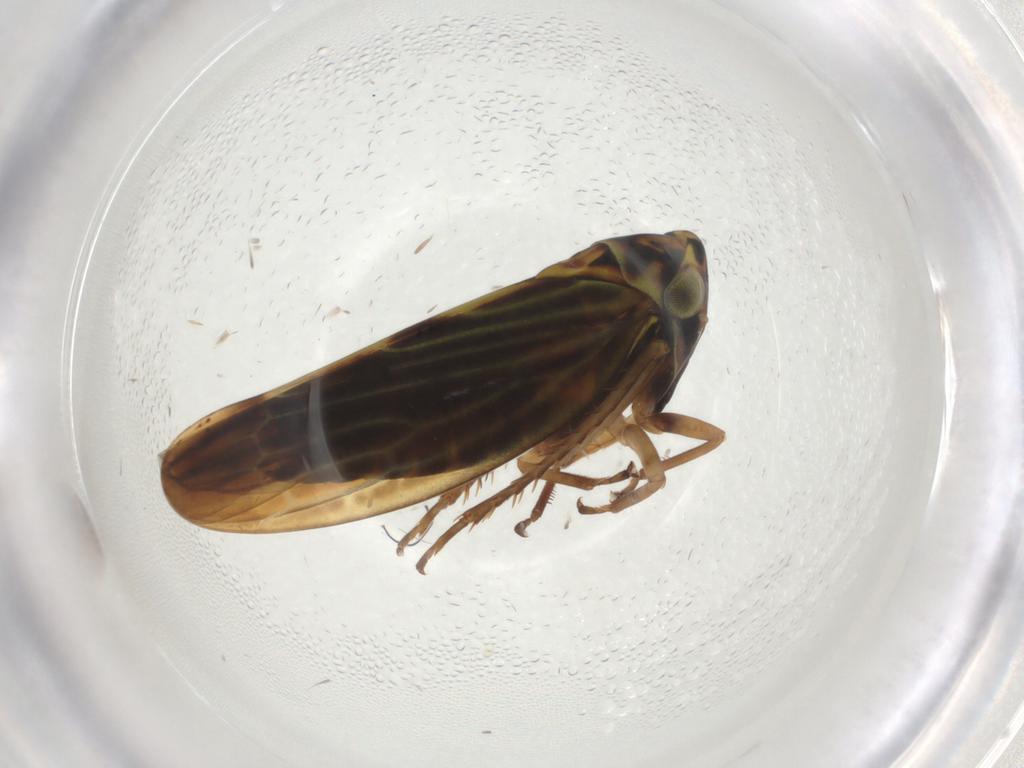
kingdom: Animalia
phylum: Arthropoda
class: Insecta
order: Hemiptera
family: Cicadellidae
